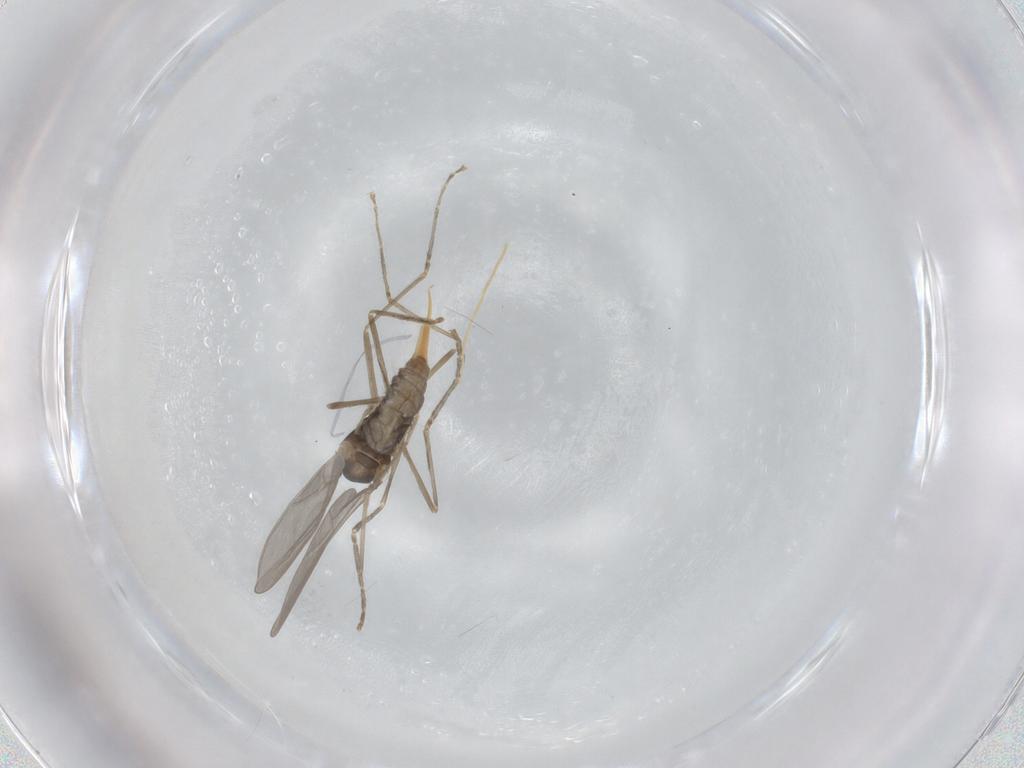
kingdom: Animalia
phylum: Arthropoda
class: Insecta
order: Diptera
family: Cecidomyiidae
